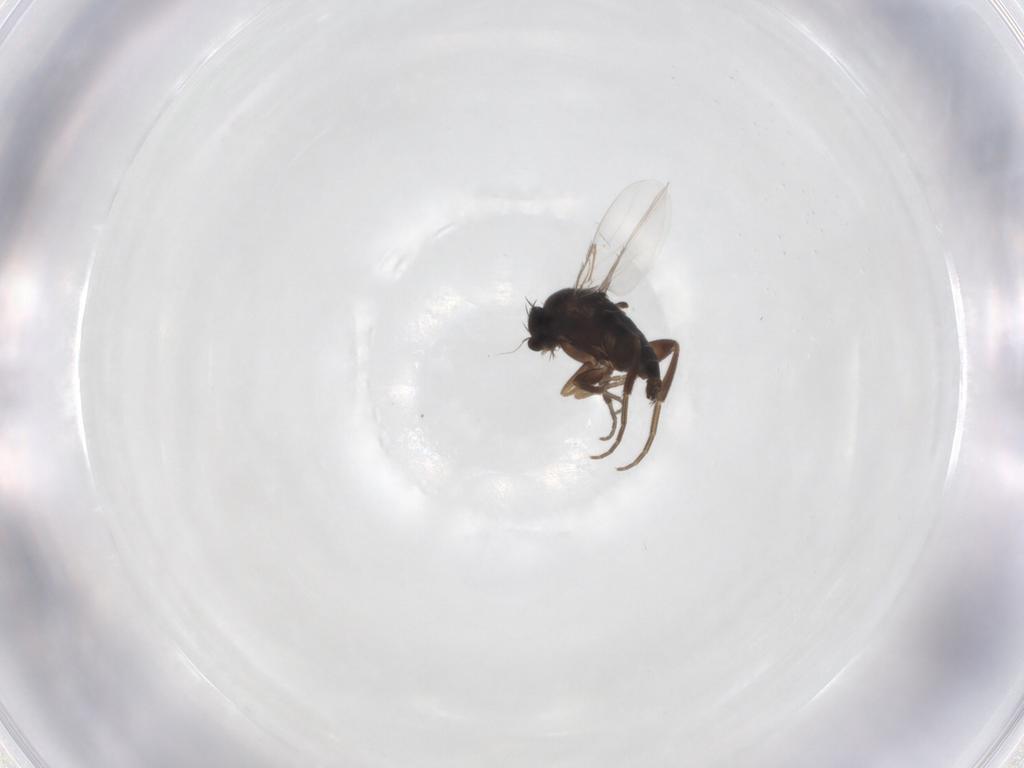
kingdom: Animalia
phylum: Arthropoda
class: Insecta
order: Diptera
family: Phoridae
